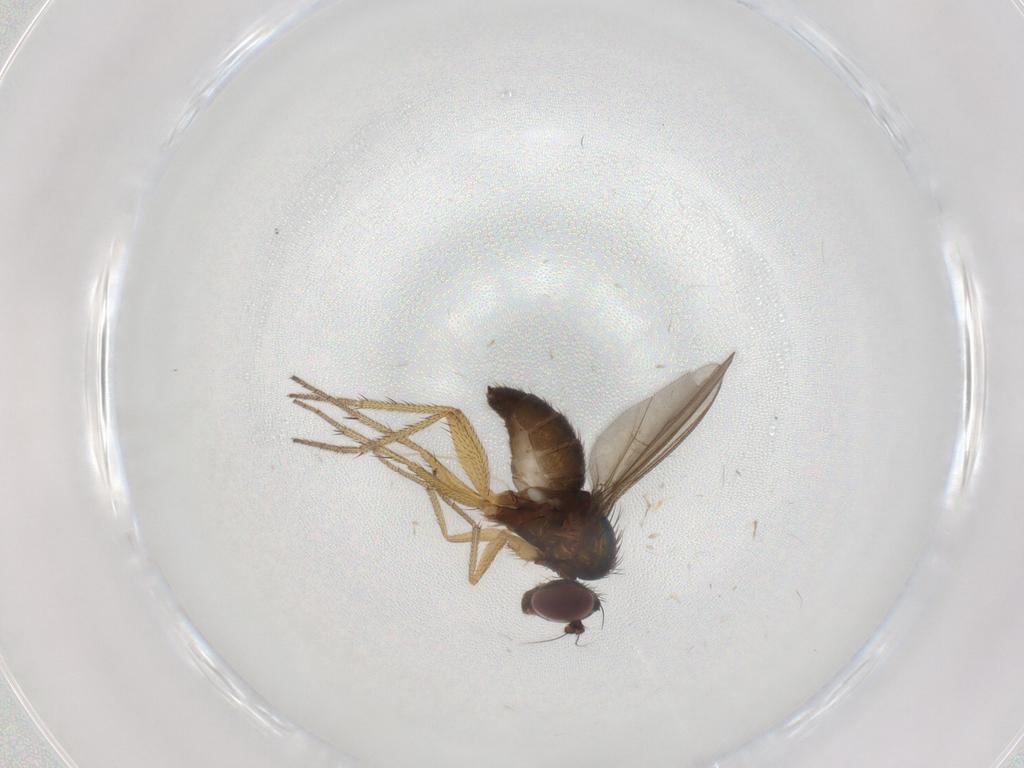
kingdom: Animalia
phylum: Arthropoda
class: Insecta
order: Diptera
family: Dolichopodidae
